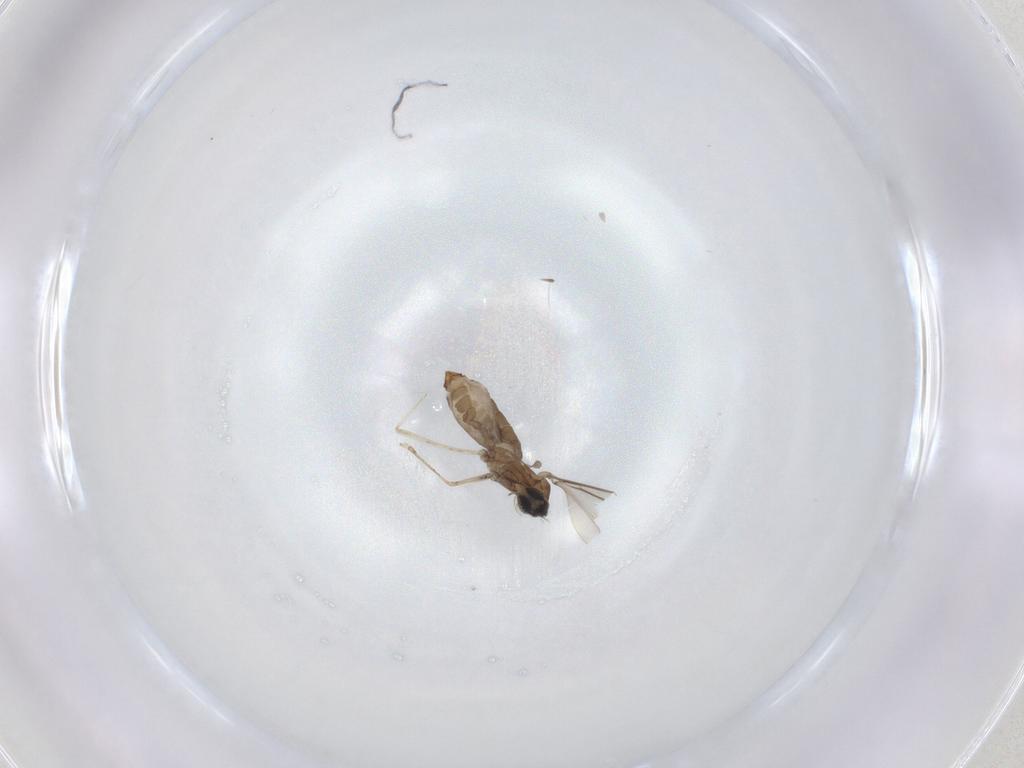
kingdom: Animalia
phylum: Arthropoda
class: Insecta
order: Diptera
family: Cecidomyiidae
